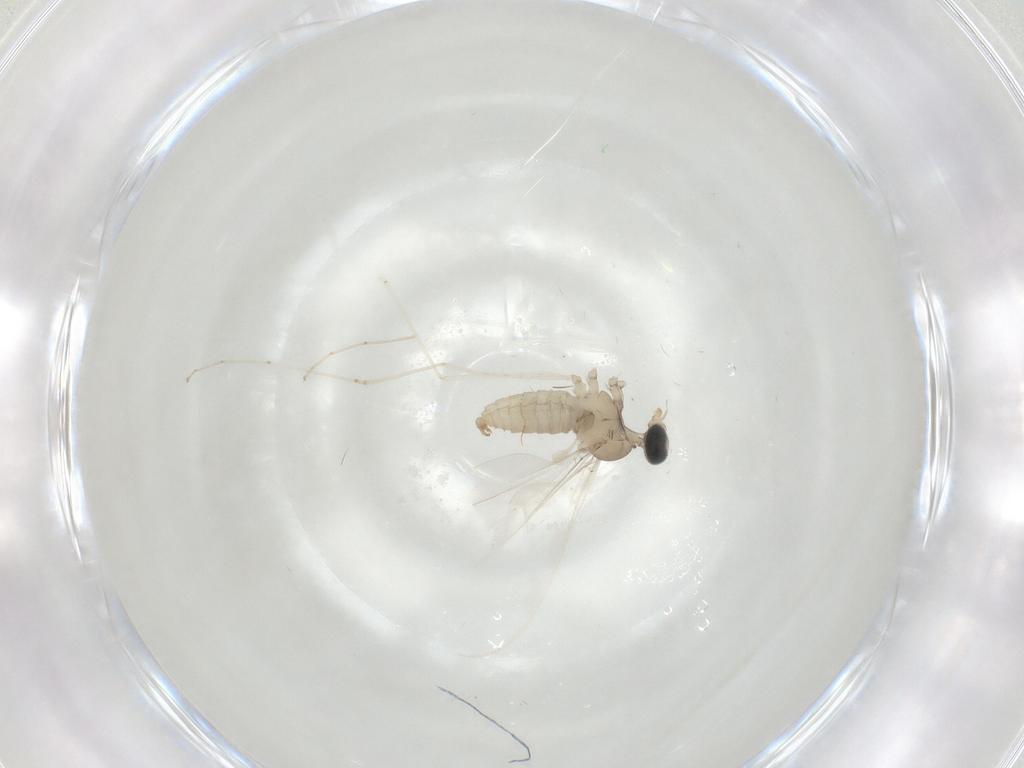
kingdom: Animalia
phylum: Arthropoda
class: Insecta
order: Diptera
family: Cecidomyiidae
